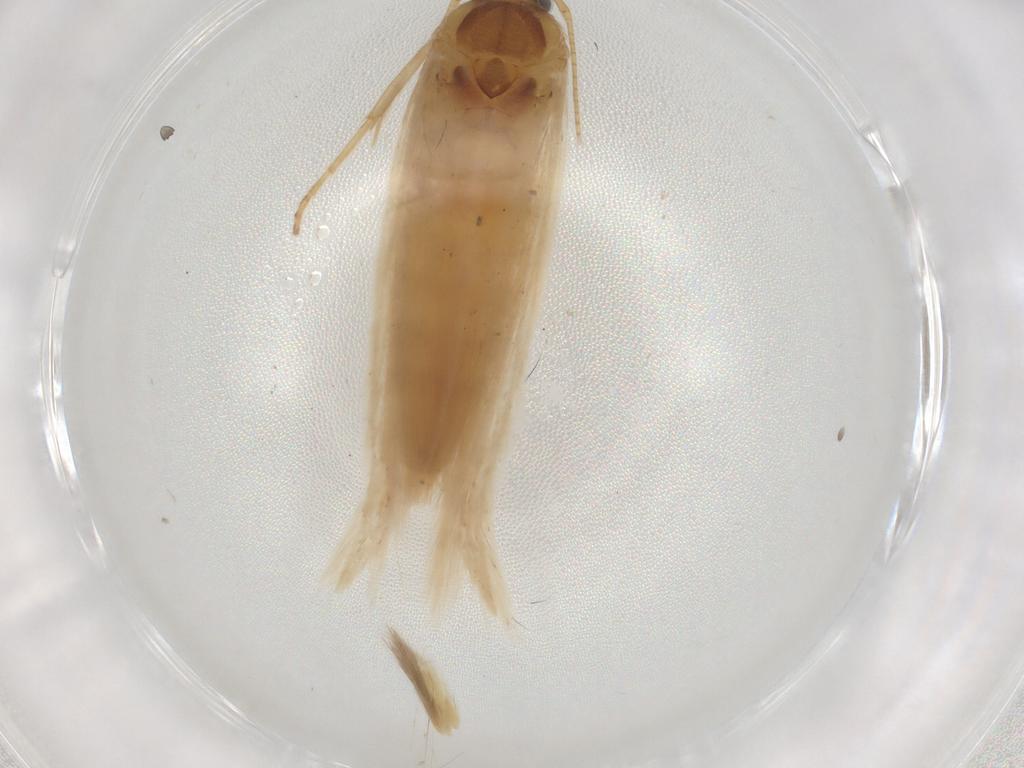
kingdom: Animalia
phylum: Arthropoda
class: Insecta
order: Lepidoptera
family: Gelechiidae
